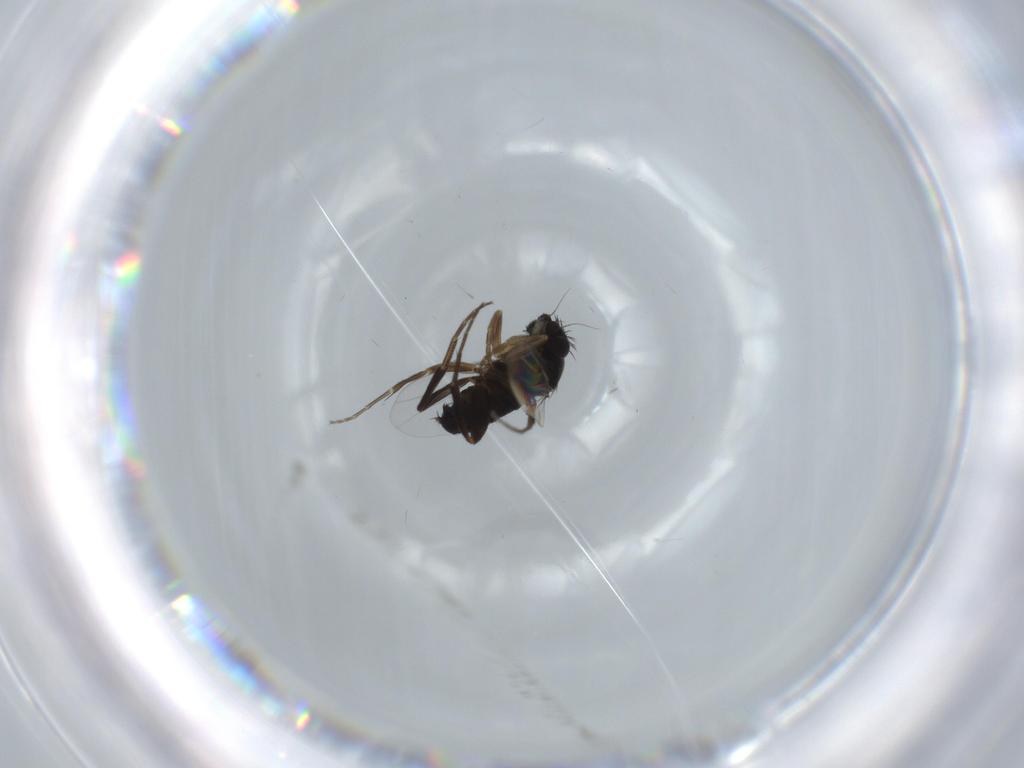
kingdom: Animalia
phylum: Arthropoda
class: Insecta
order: Diptera
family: Phoridae
